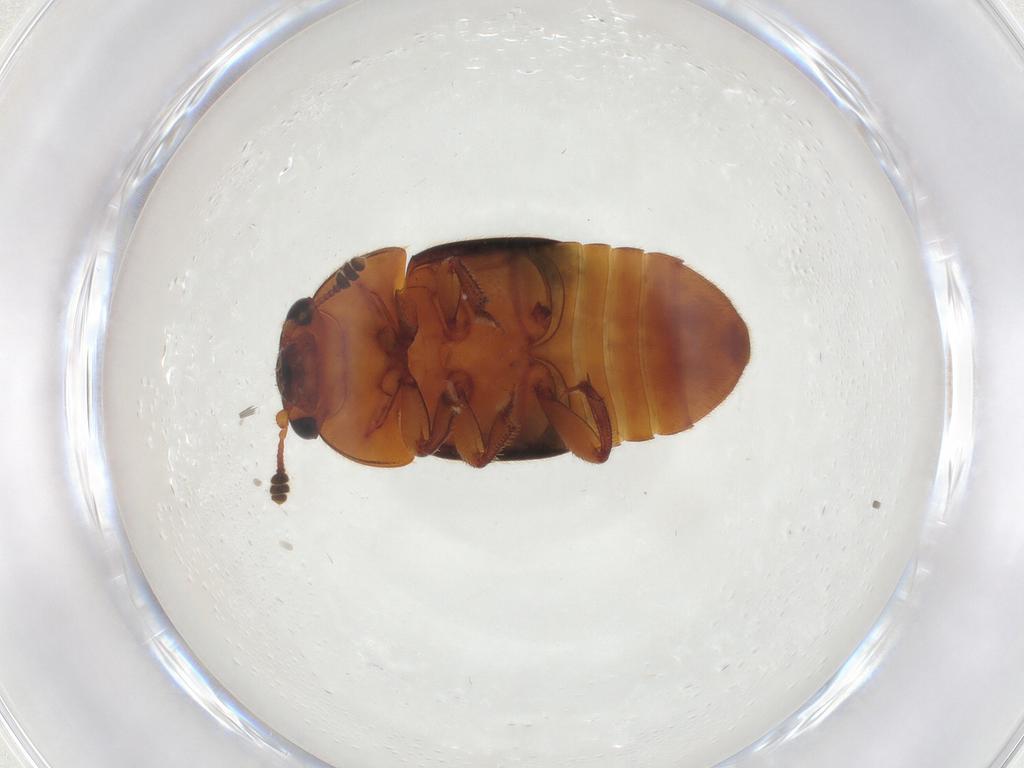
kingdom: Animalia
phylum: Arthropoda
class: Insecta
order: Coleoptera
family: Nitidulidae
